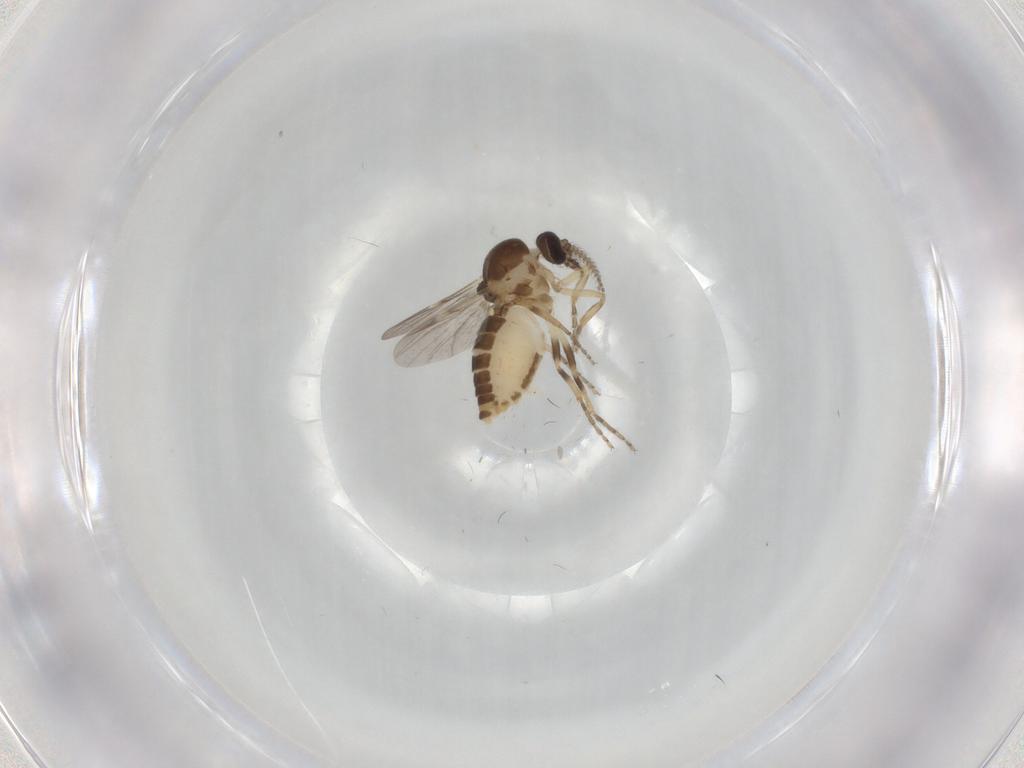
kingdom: Animalia
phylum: Arthropoda
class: Insecta
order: Diptera
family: Ceratopogonidae
